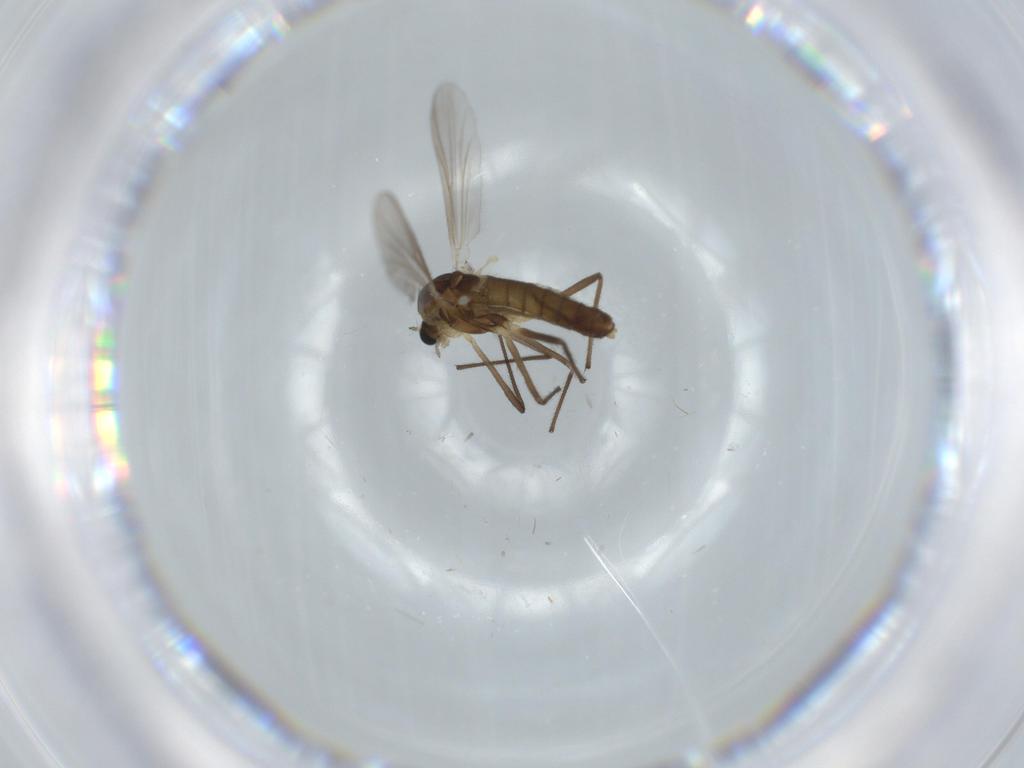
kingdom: Animalia
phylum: Arthropoda
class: Insecta
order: Diptera
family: Chironomidae
